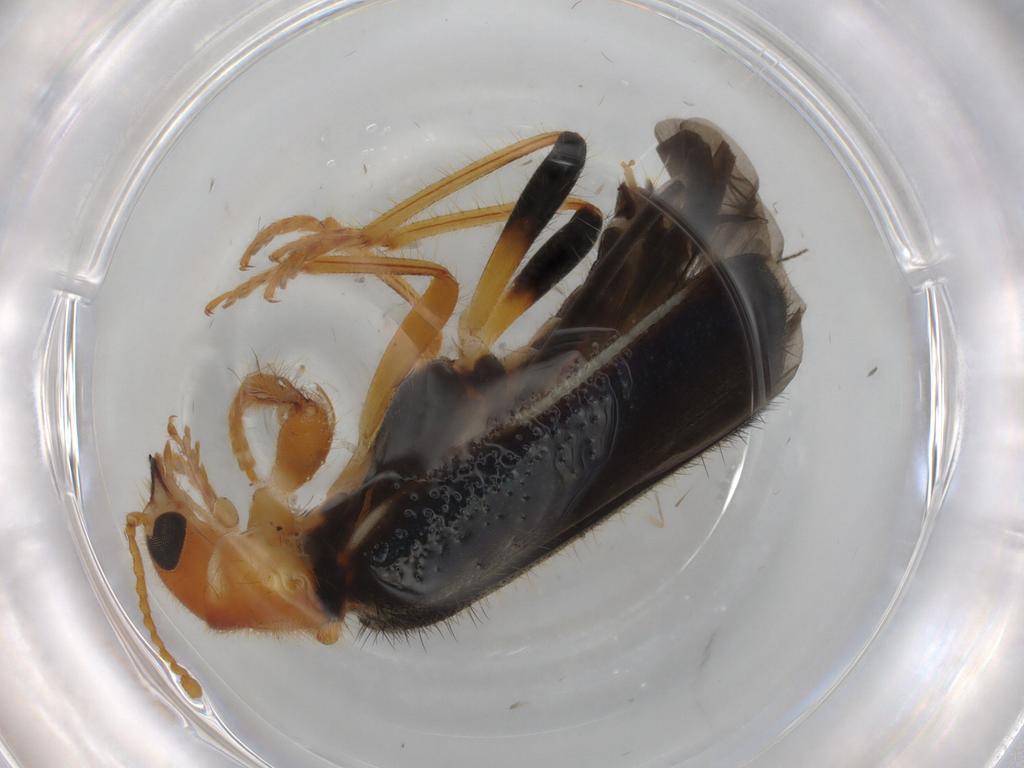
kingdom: Animalia
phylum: Arthropoda
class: Insecta
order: Coleoptera
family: Corylophidae
